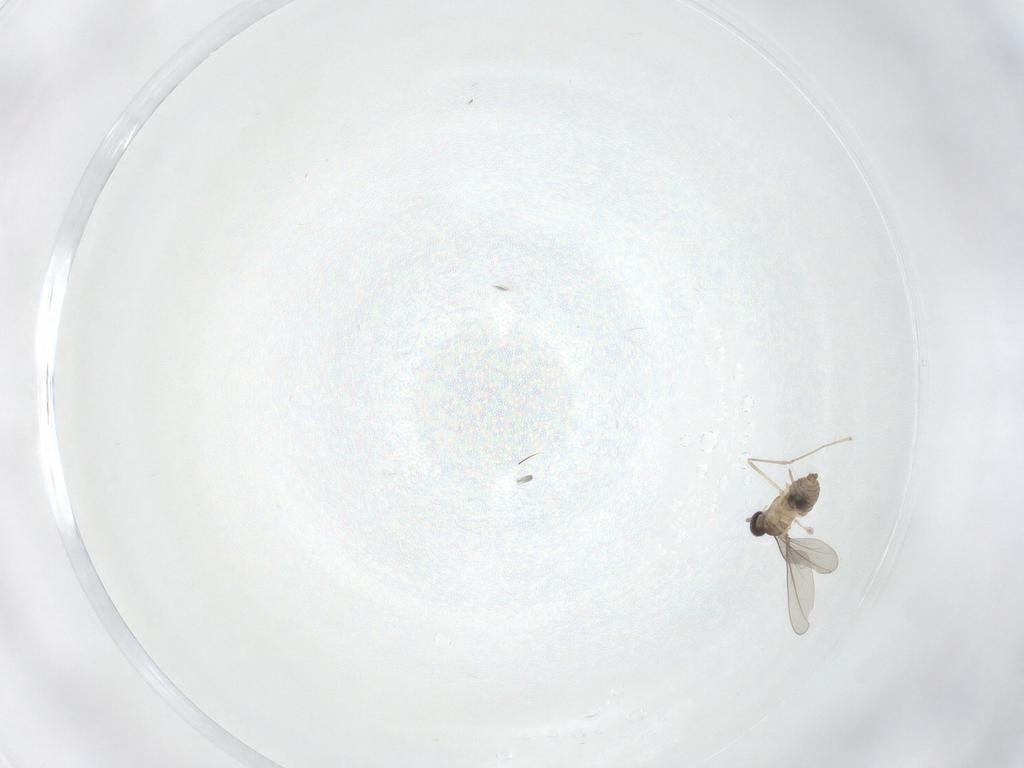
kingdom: Animalia
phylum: Arthropoda
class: Insecta
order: Diptera
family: Cecidomyiidae
